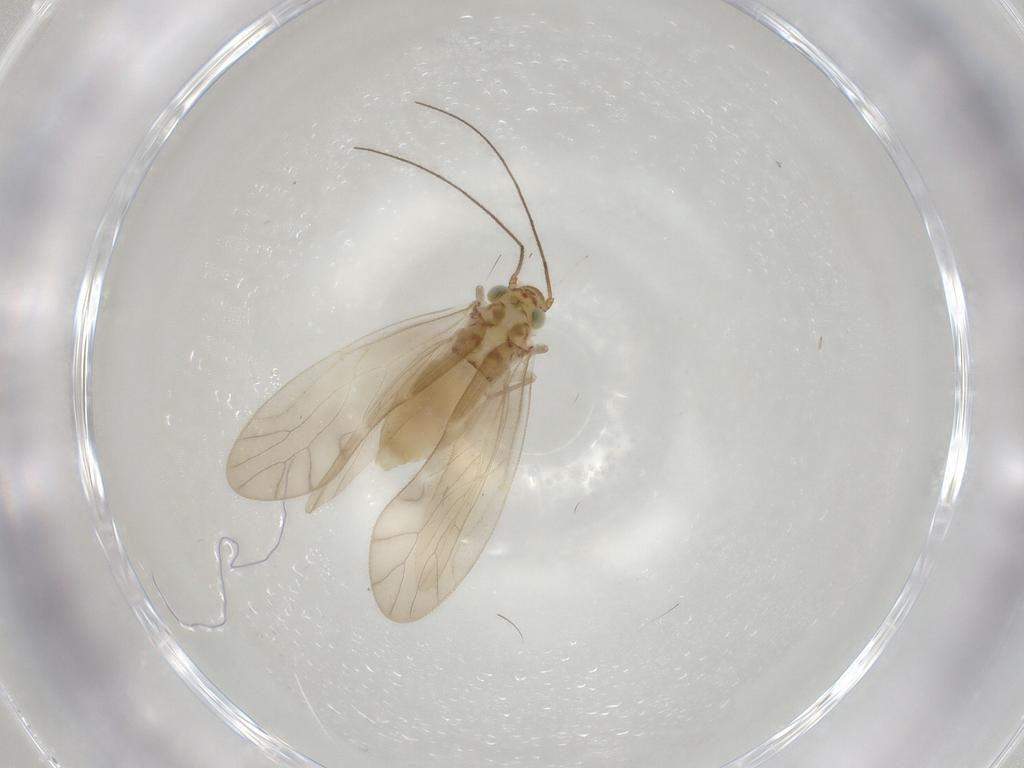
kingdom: Animalia
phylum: Arthropoda
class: Insecta
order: Psocodea
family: Caeciliusidae
